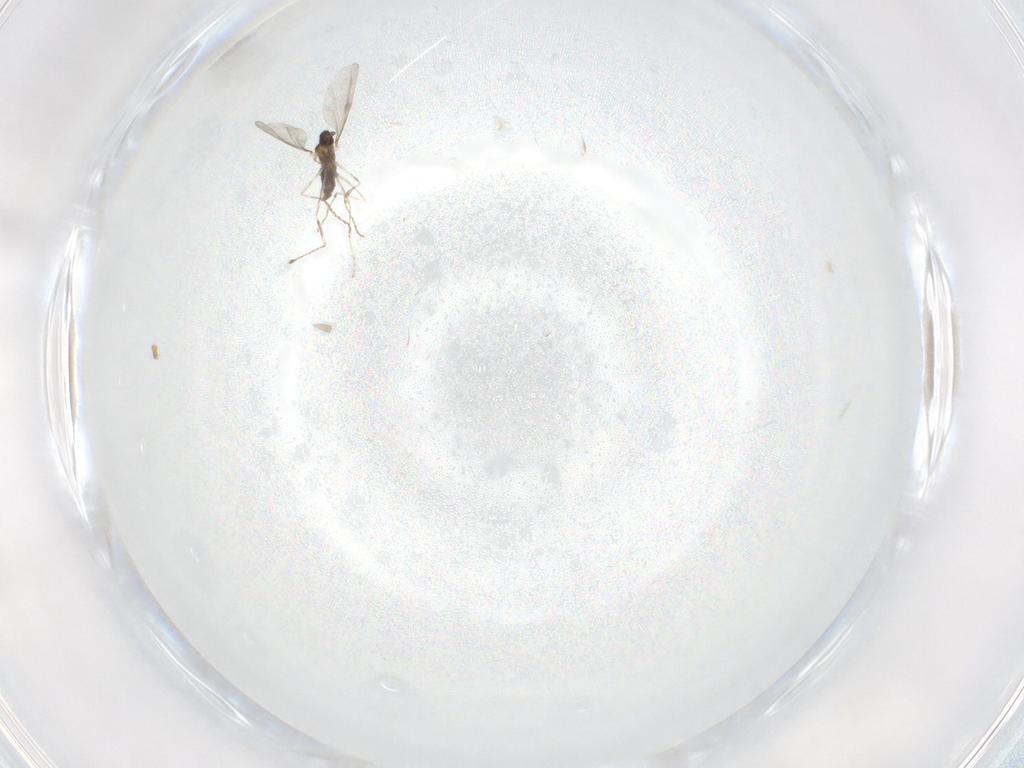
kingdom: Animalia
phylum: Arthropoda
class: Insecta
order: Diptera
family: Cecidomyiidae
